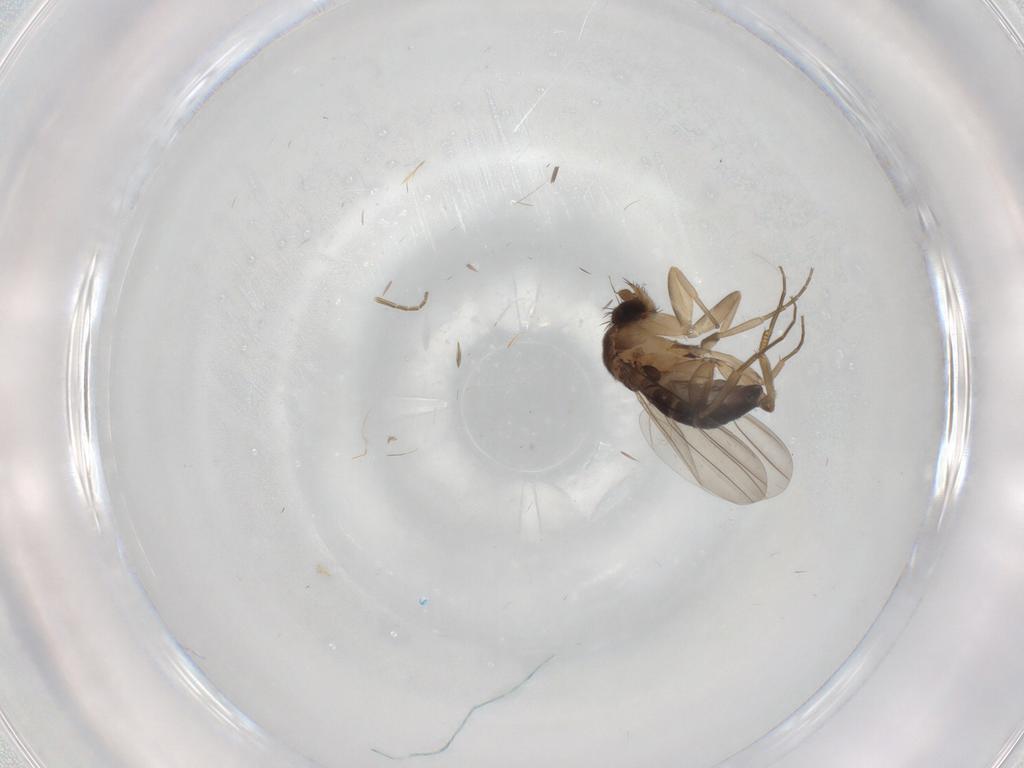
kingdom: Animalia
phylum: Arthropoda
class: Insecta
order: Diptera
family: Phoridae
